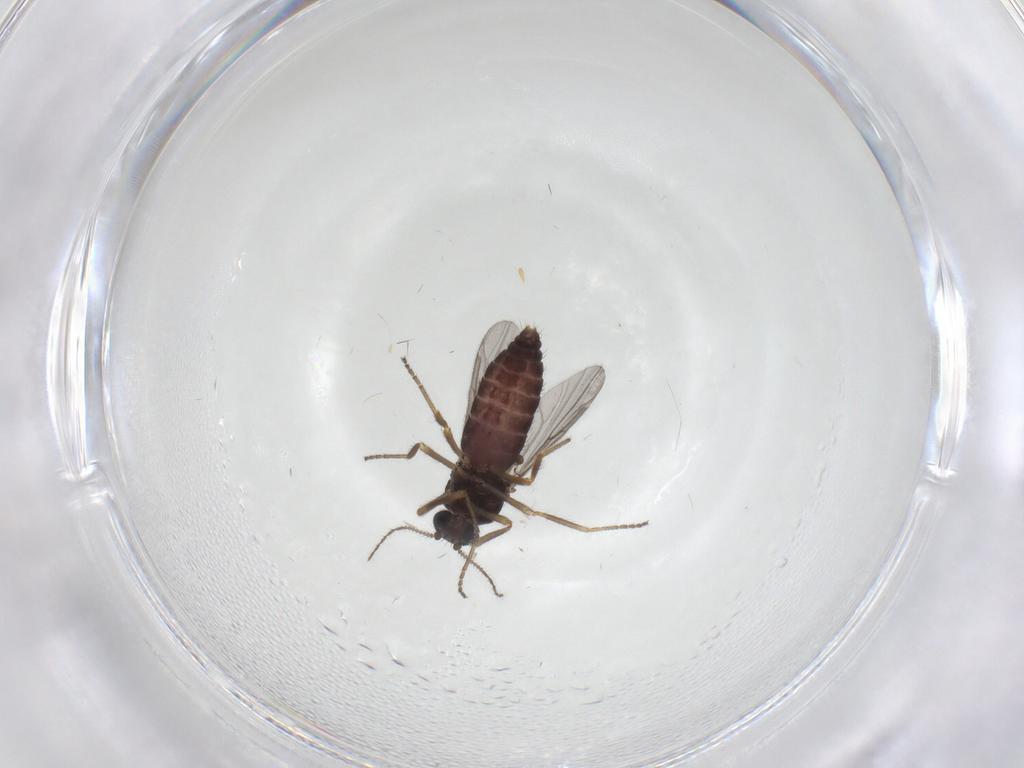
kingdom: Animalia
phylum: Arthropoda
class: Insecta
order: Diptera
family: Ceratopogonidae
